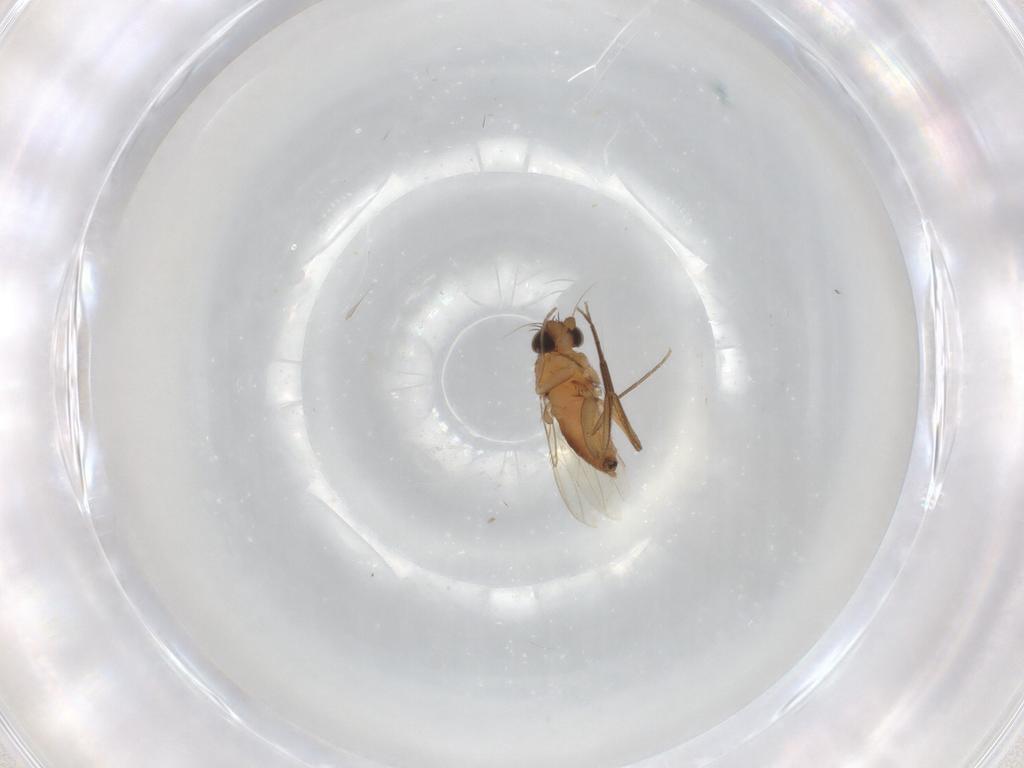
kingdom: Animalia
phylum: Arthropoda
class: Insecta
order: Diptera
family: Phoridae
